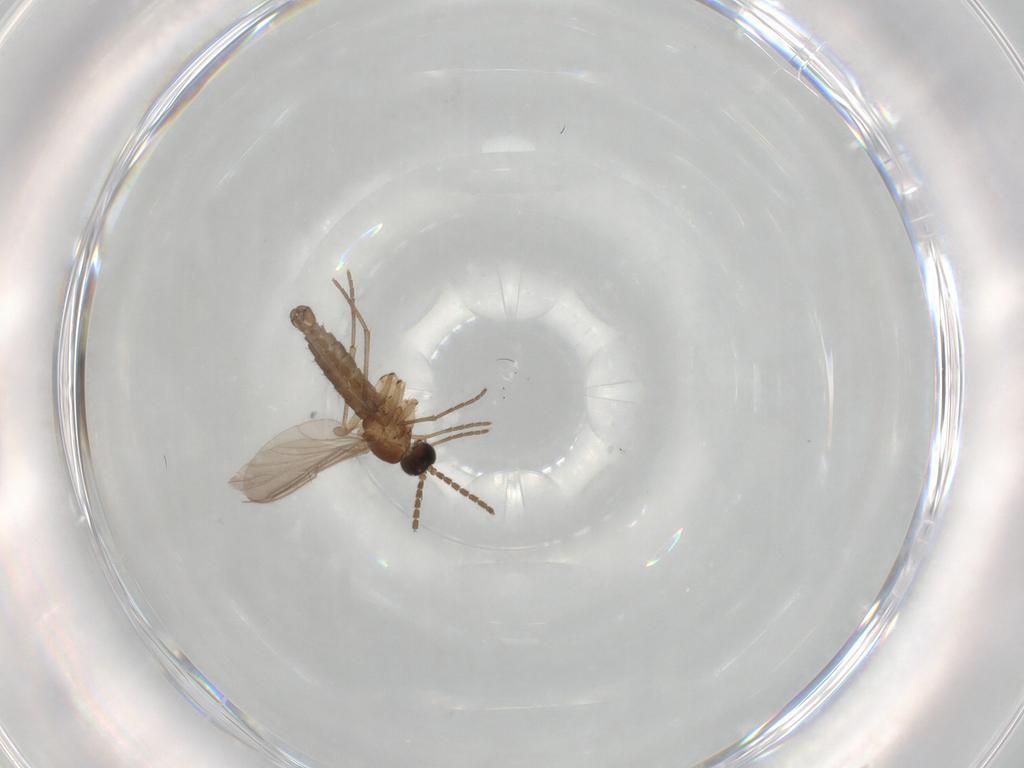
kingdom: Animalia
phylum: Arthropoda
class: Insecta
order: Diptera
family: Sciaridae
